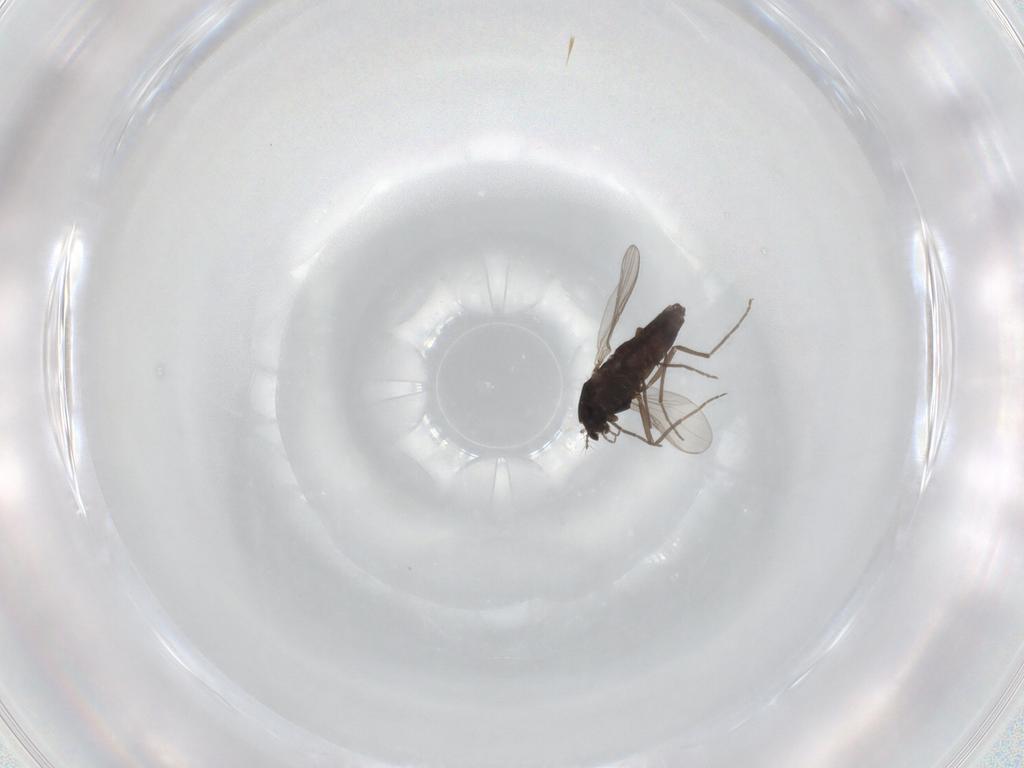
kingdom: Animalia
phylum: Arthropoda
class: Insecta
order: Diptera
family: Chironomidae
